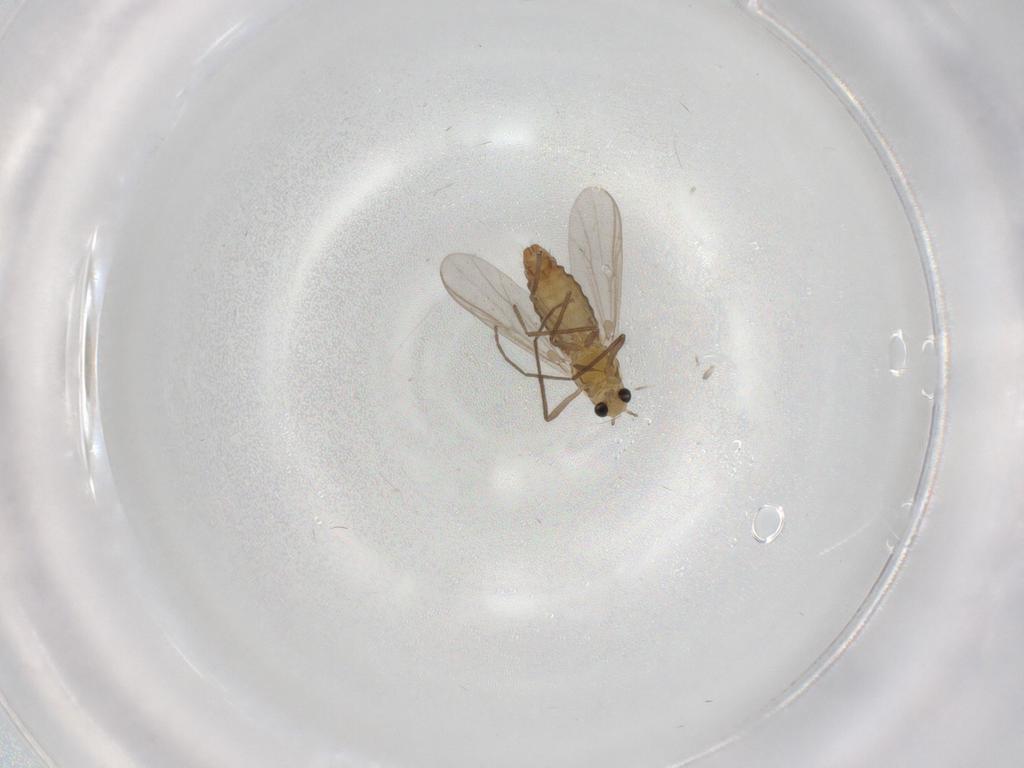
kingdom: Animalia
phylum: Arthropoda
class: Insecta
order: Diptera
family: Chironomidae
